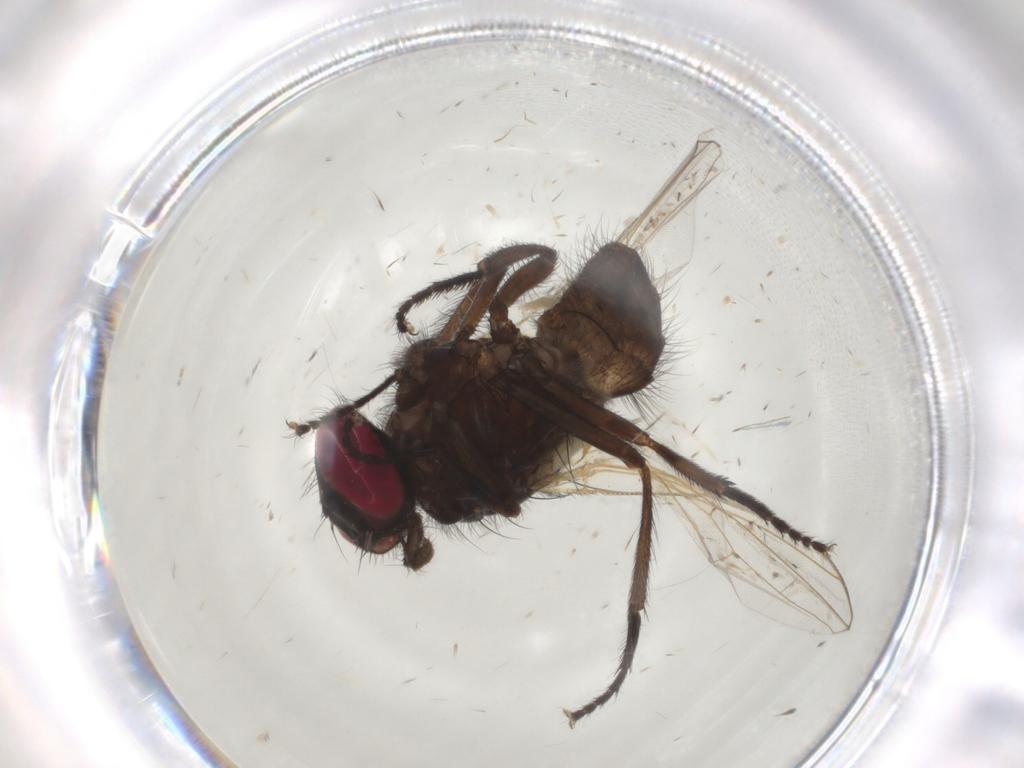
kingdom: Animalia
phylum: Arthropoda
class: Insecta
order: Diptera
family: Muscidae
